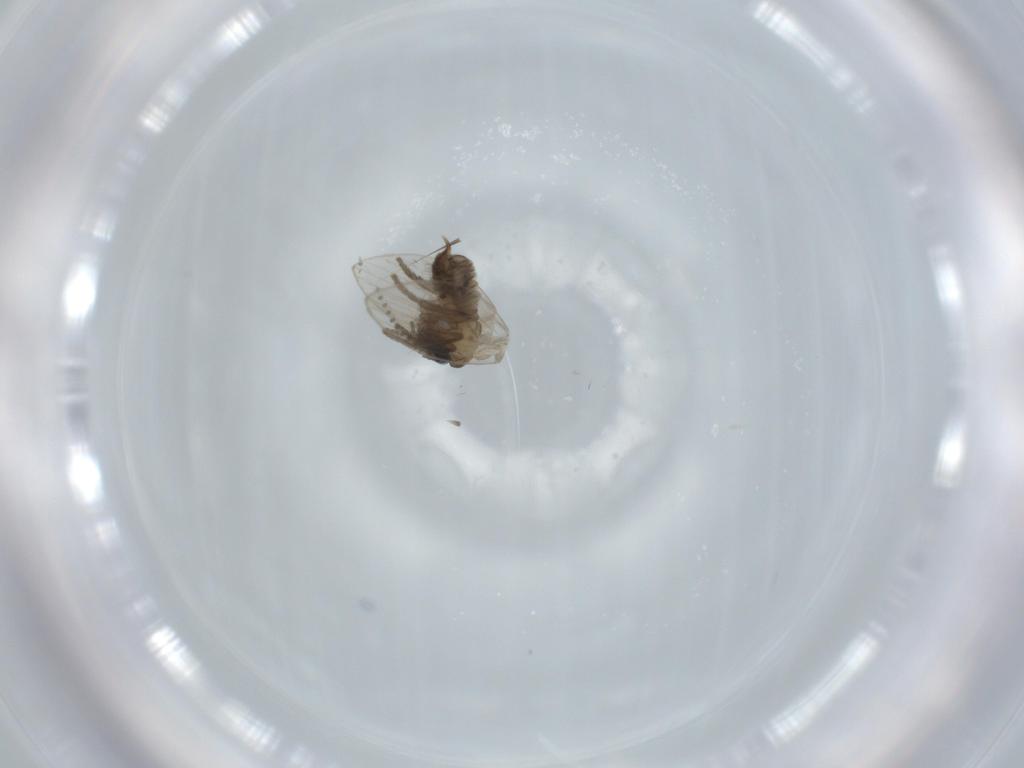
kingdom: Animalia
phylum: Arthropoda
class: Insecta
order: Diptera
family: Psychodidae
